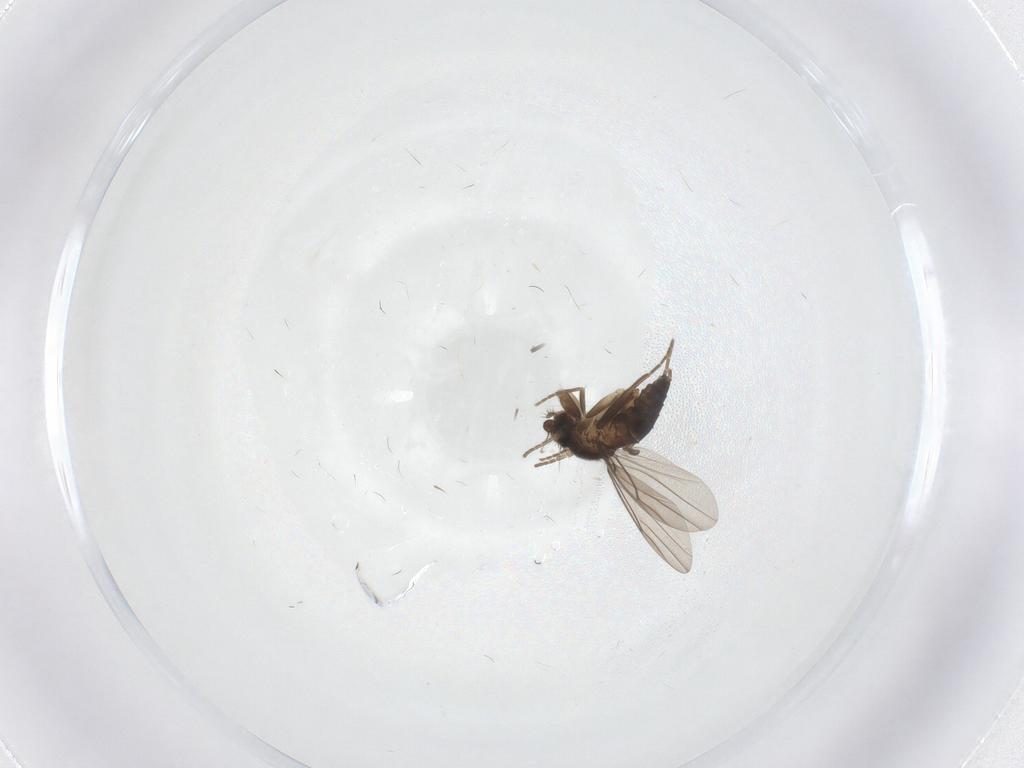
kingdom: Animalia
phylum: Arthropoda
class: Insecta
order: Diptera
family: Phoridae
